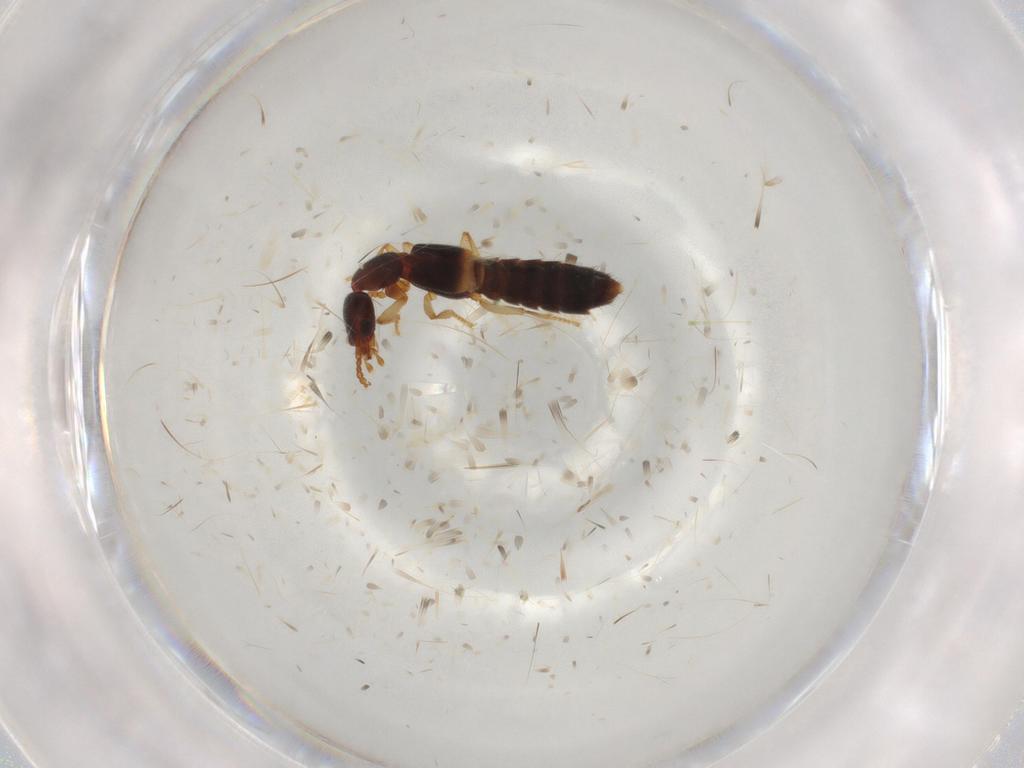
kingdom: Animalia
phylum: Arthropoda
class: Insecta
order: Coleoptera
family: Staphylinidae
